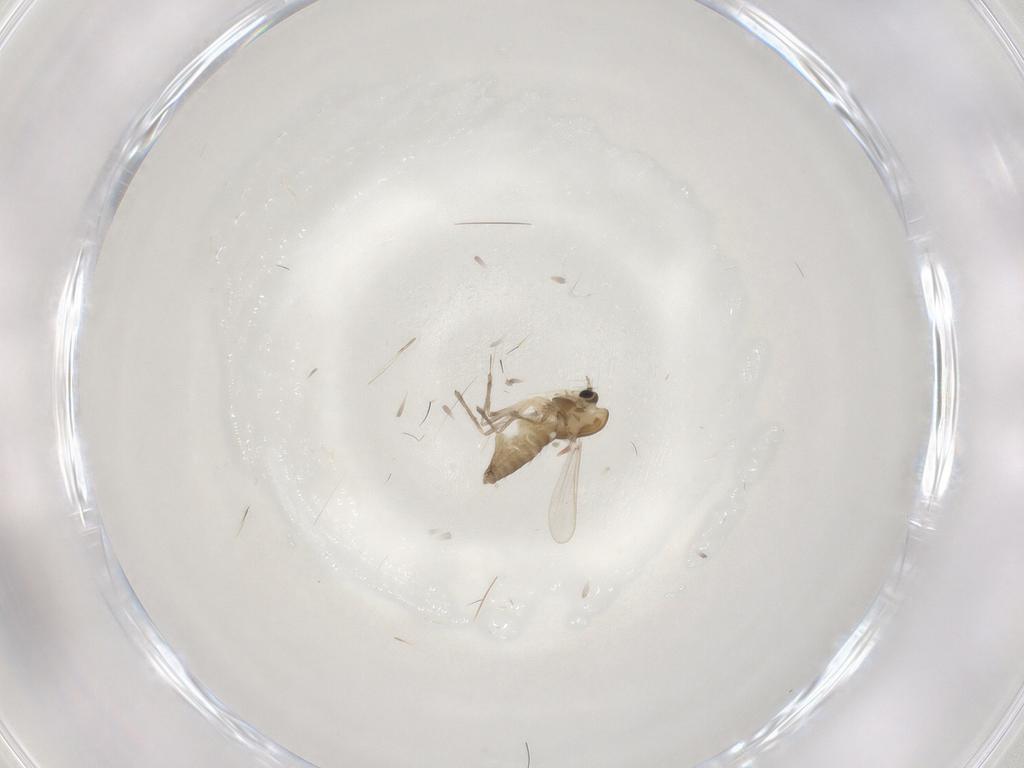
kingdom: Animalia
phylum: Arthropoda
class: Insecta
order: Diptera
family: Chironomidae
